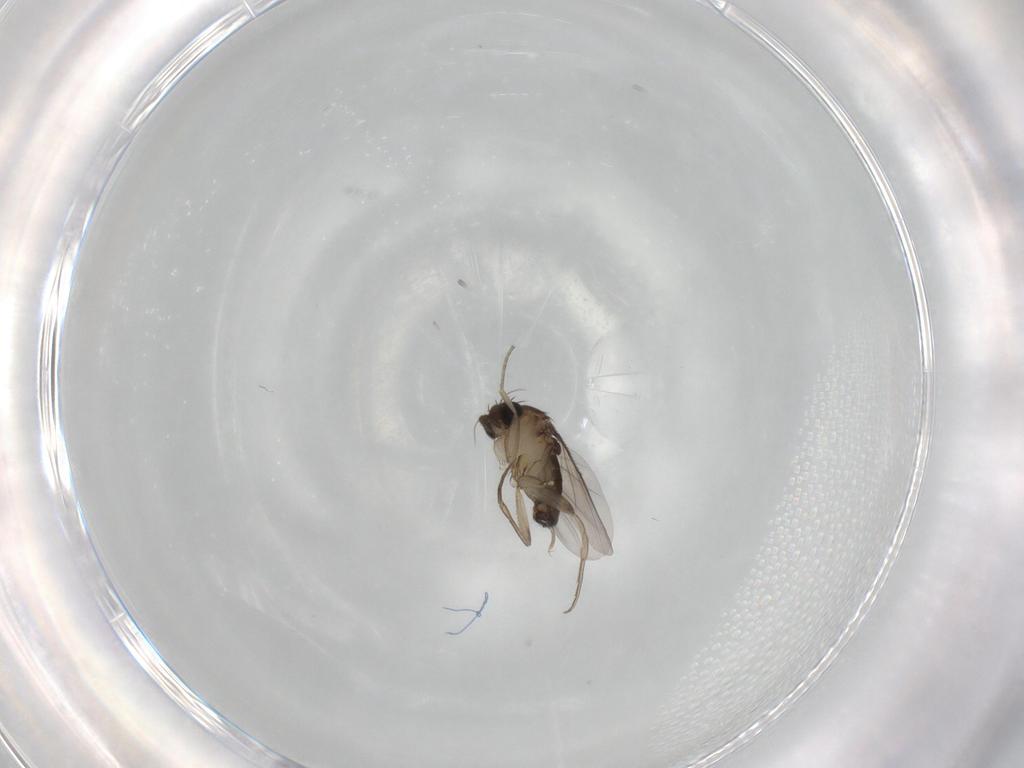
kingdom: Animalia
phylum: Arthropoda
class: Insecta
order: Diptera
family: Phoridae
